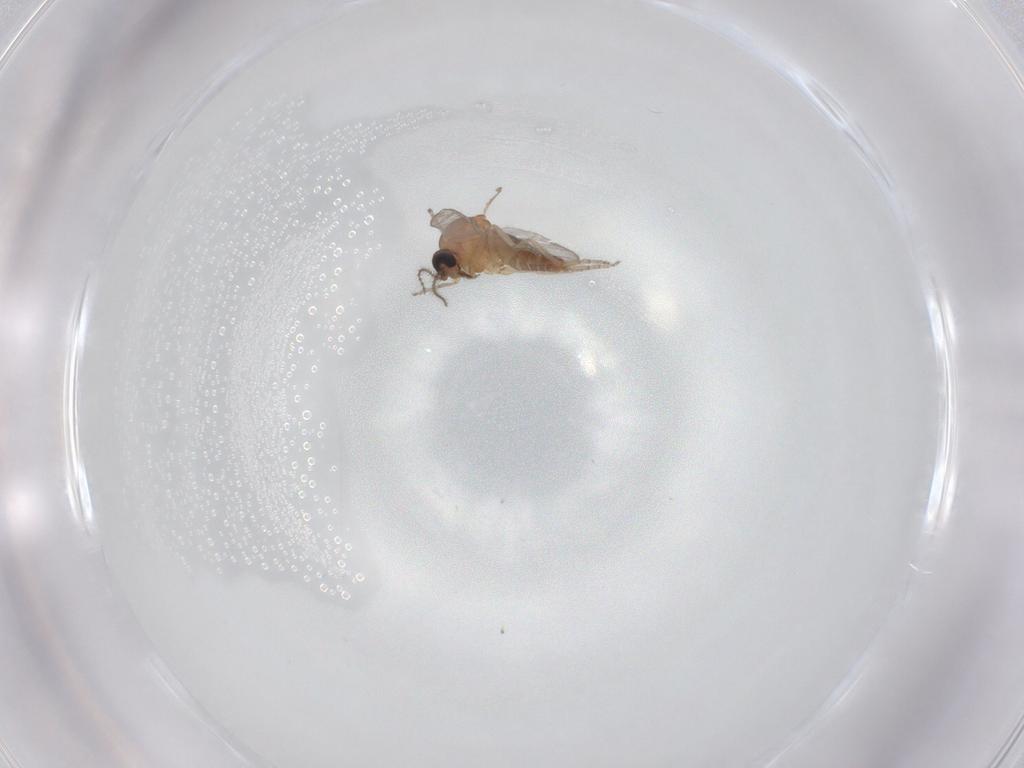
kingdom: Animalia
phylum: Arthropoda
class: Insecta
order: Diptera
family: Ceratopogonidae
